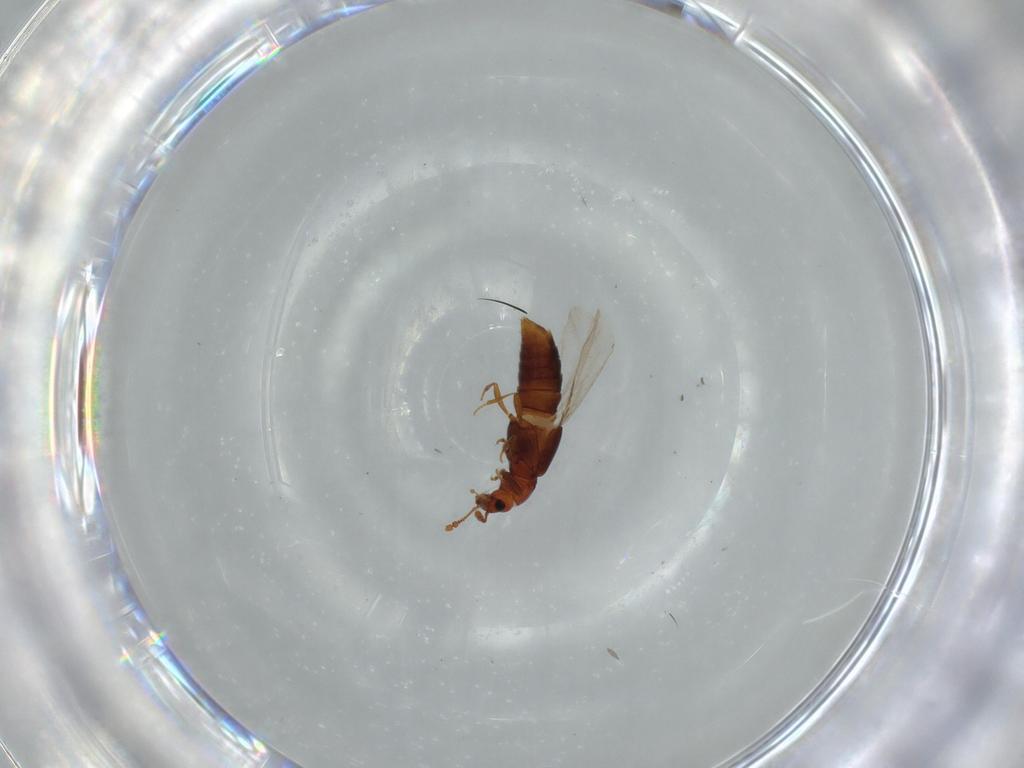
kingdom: Animalia
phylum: Arthropoda
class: Insecta
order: Coleoptera
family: Staphylinidae
